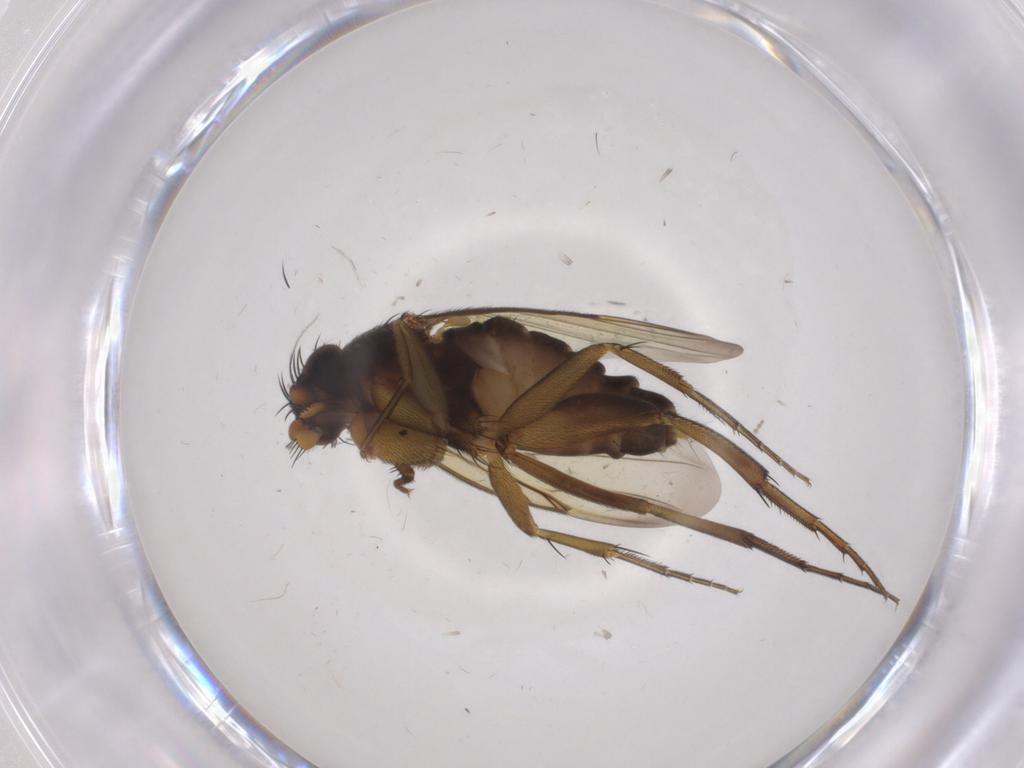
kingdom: Animalia
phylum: Arthropoda
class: Insecta
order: Diptera
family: Phoridae
